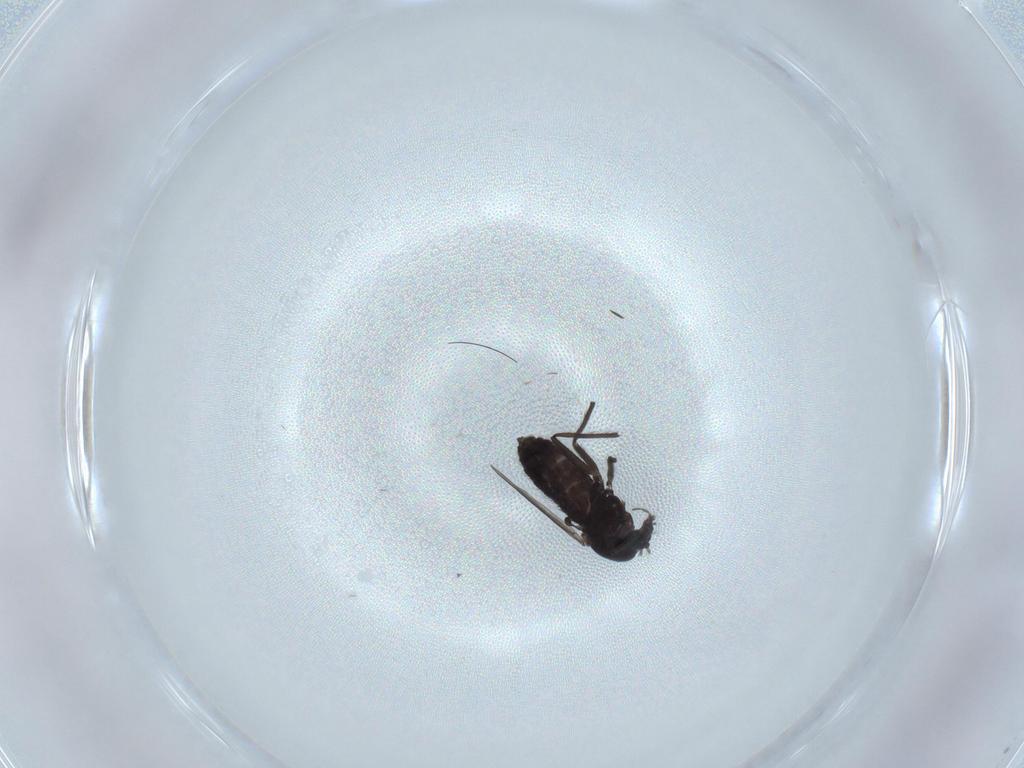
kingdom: Animalia
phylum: Arthropoda
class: Insecta
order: Diptera
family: Chironomidae
